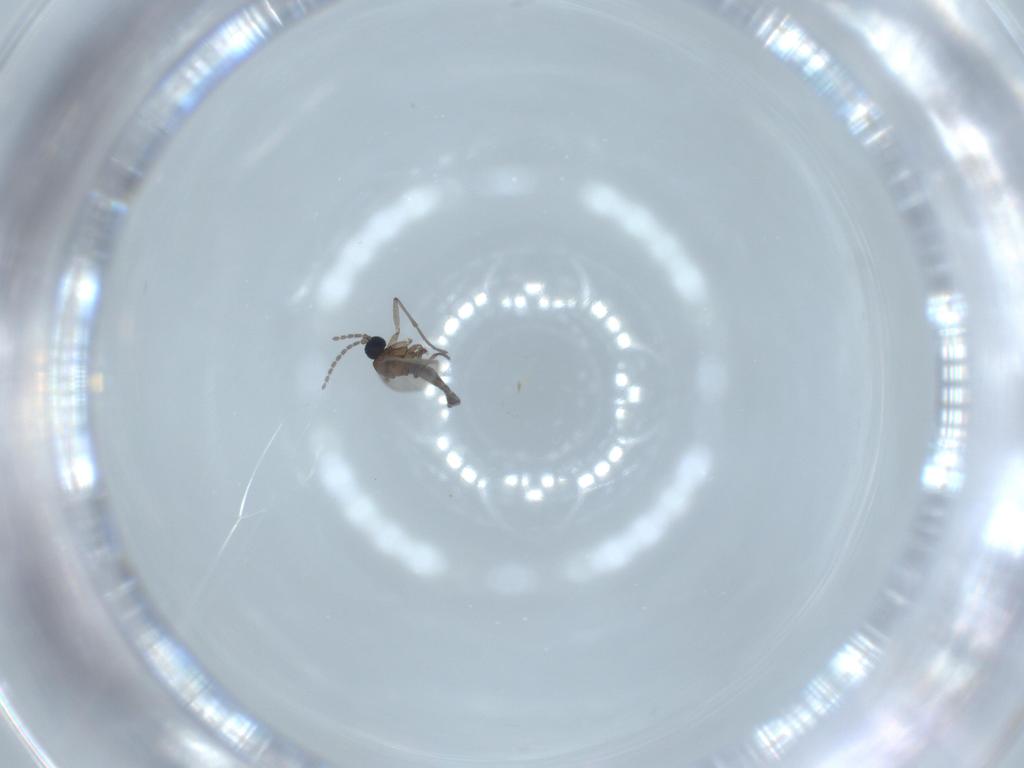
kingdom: Animalia
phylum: Arthropoda
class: Insecta
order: Diptera
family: Sciaridae
